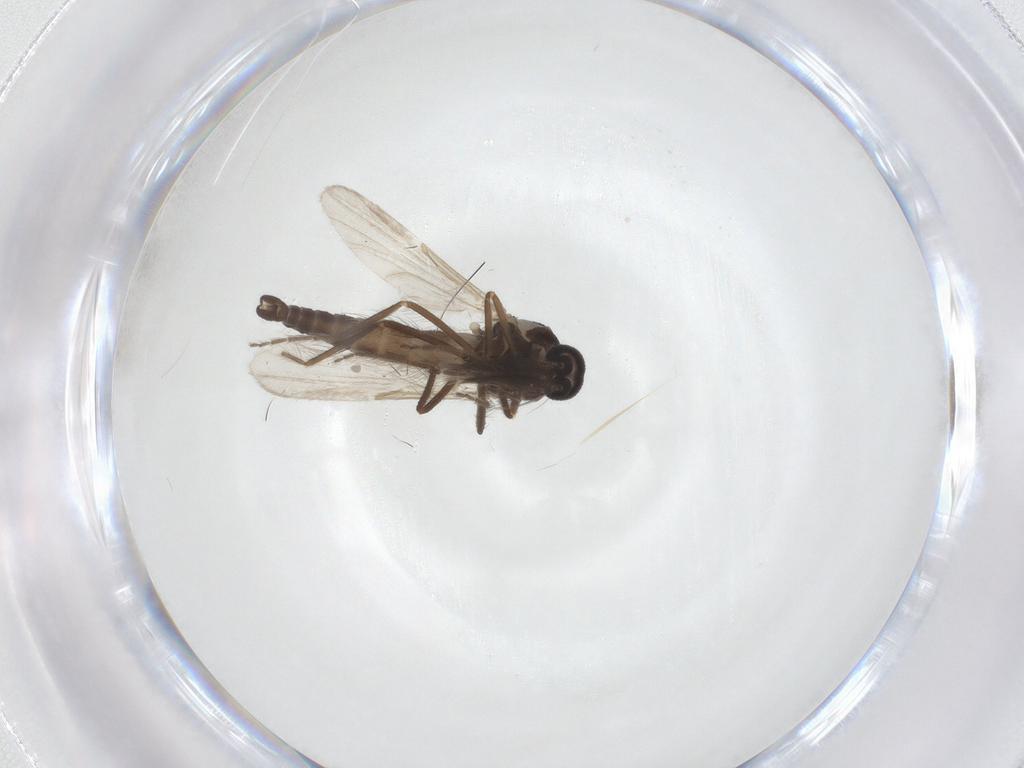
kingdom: Animalia
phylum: Arthropoda
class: Insecta
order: Diptera
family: Ceratopogonidae
